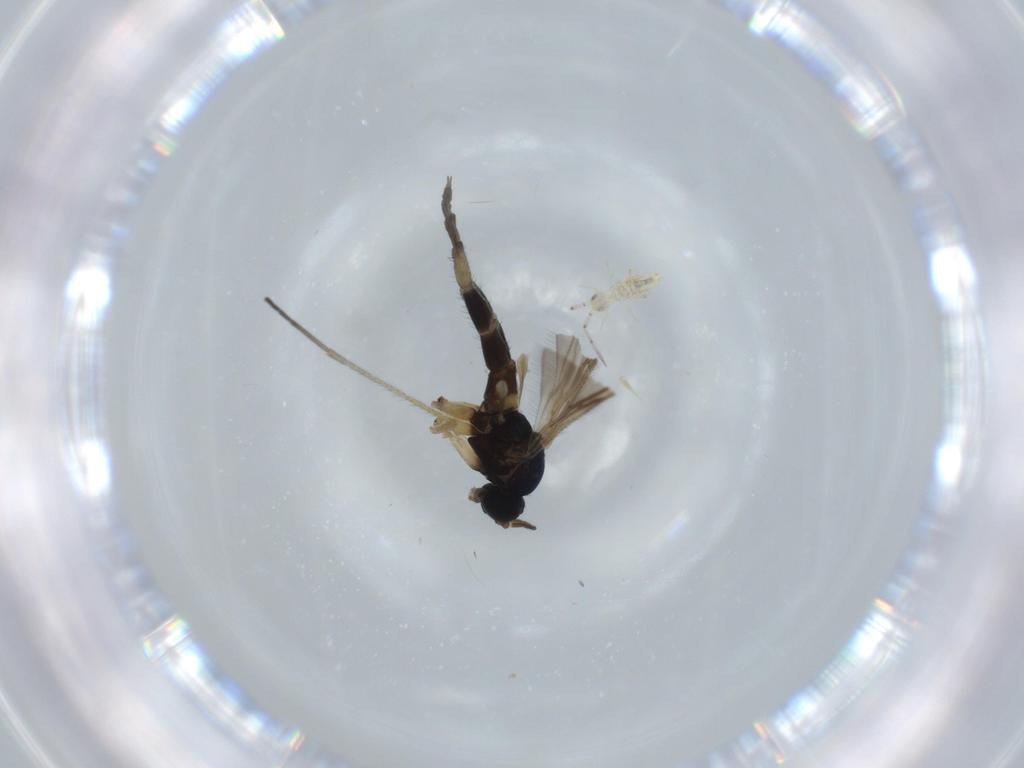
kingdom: Animalia
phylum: Arthropoda
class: Insecta
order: Diptera
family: Sciaridae
